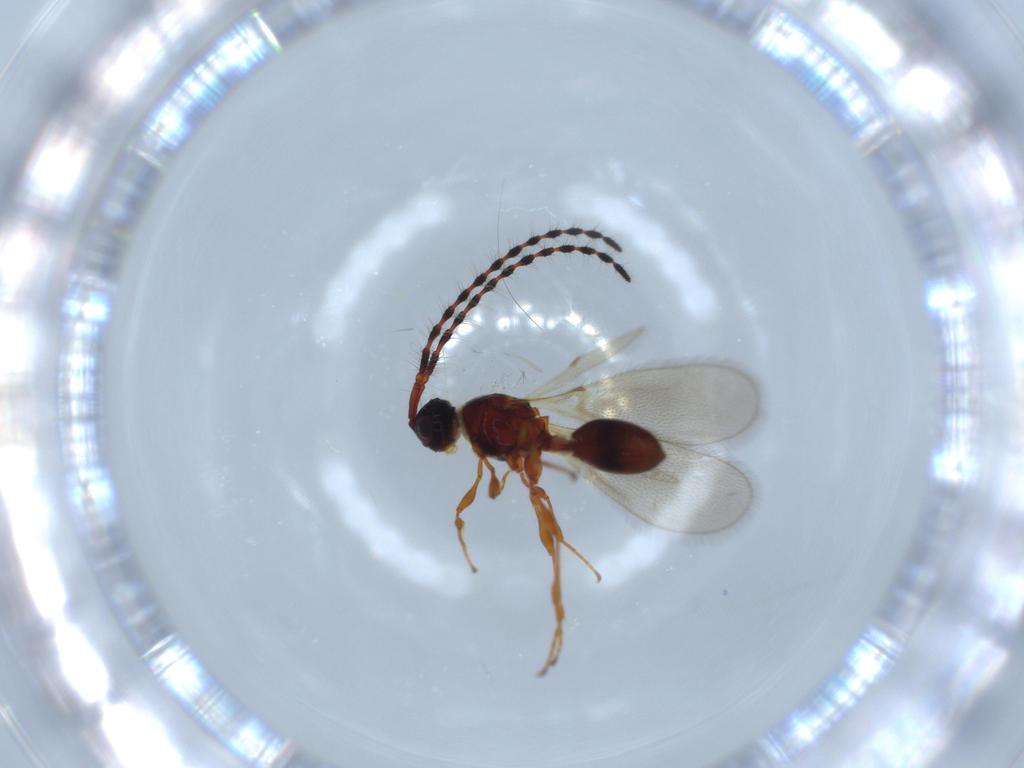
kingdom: Animalia
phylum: Arthropoda
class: Insecta
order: Hymenoptera
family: Diapriidae
